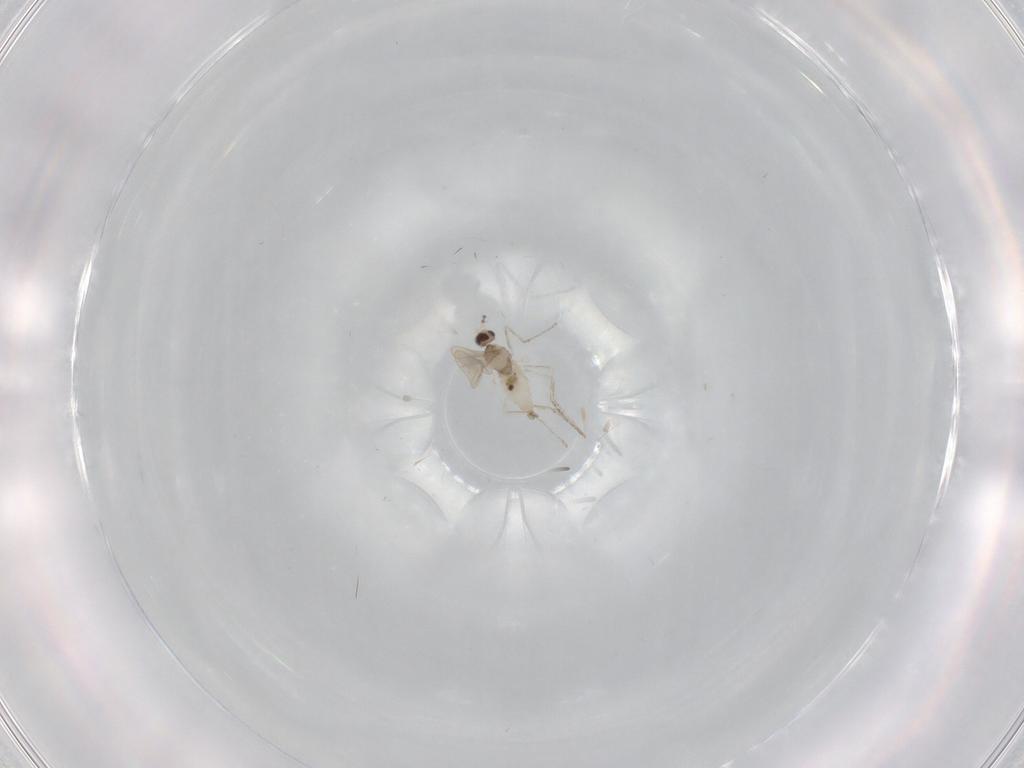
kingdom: Animalia
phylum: Arthropoda
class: Insecta
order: Diptera
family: Cecidomyiidae
